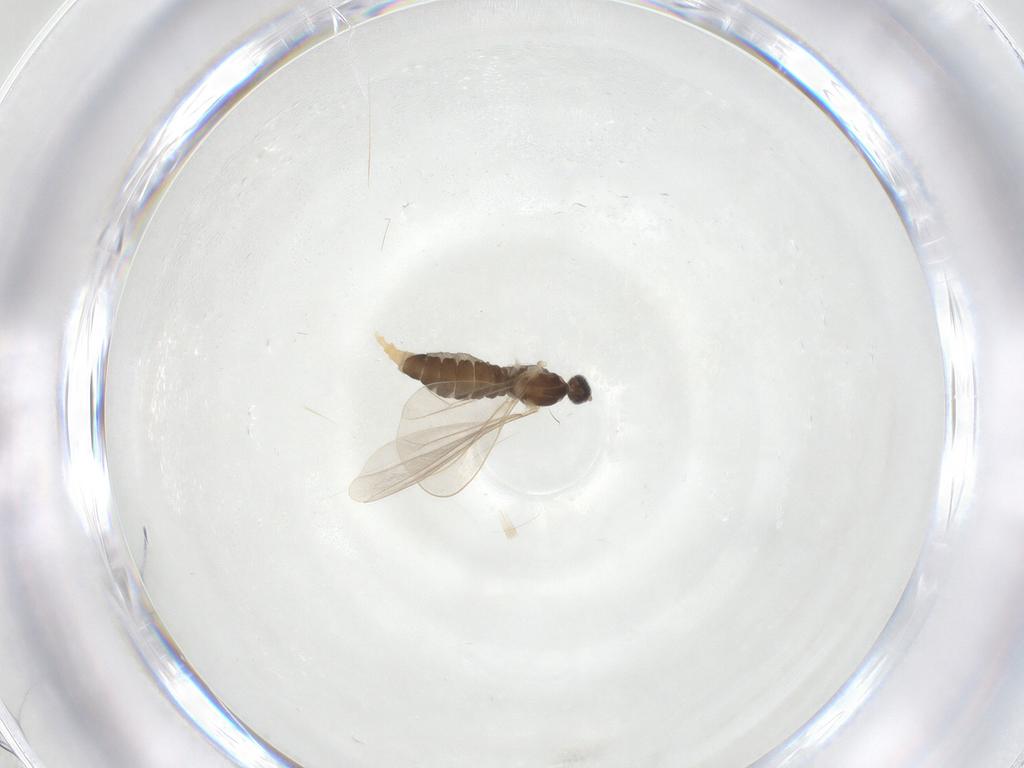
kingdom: Animalia
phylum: Arthropoda
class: Insecta
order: Diptera
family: Cecidomyiidae
